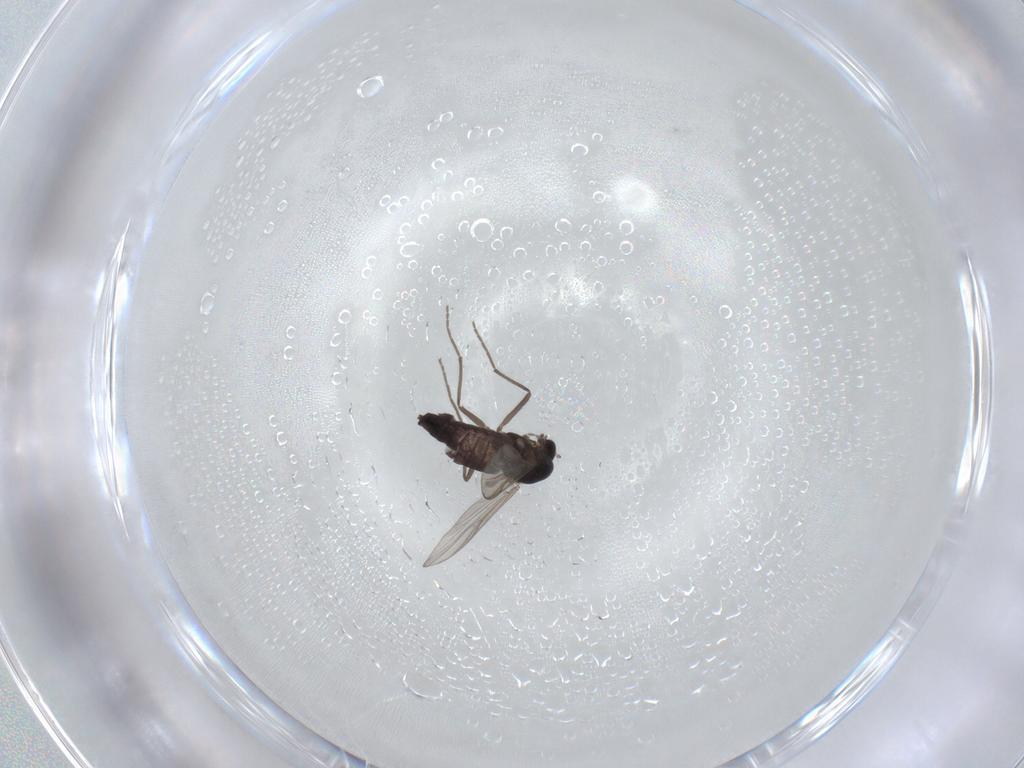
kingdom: Animalia
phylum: Arthropoda
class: Insecta
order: Diptera
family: Chironomidae
